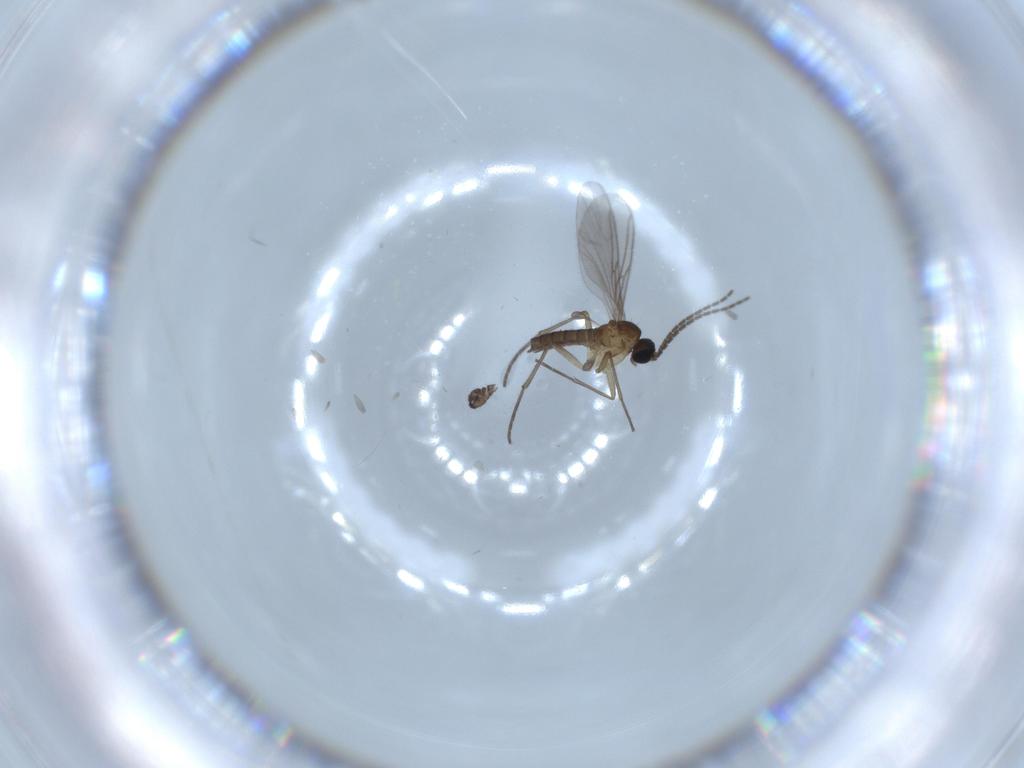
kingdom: Animalia
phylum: Arthropoda
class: Insecta
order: Diptera
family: Sciaridae
